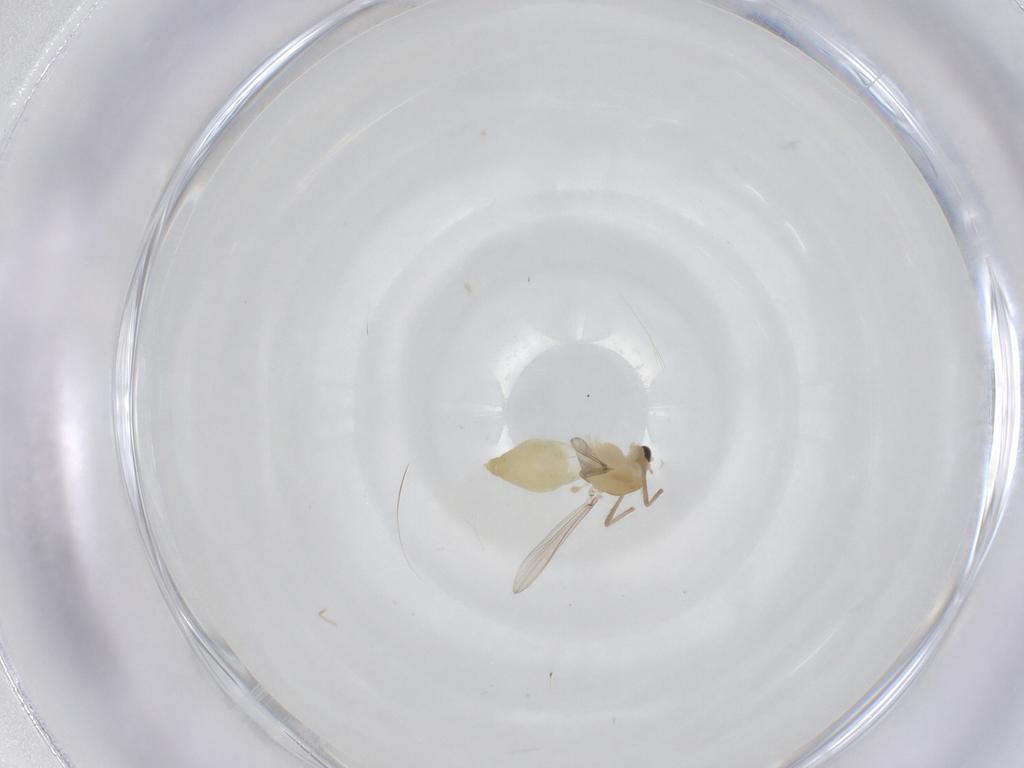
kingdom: Animalia
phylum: Arthropoda
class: Insecta
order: Diptera
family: Chironomidae
